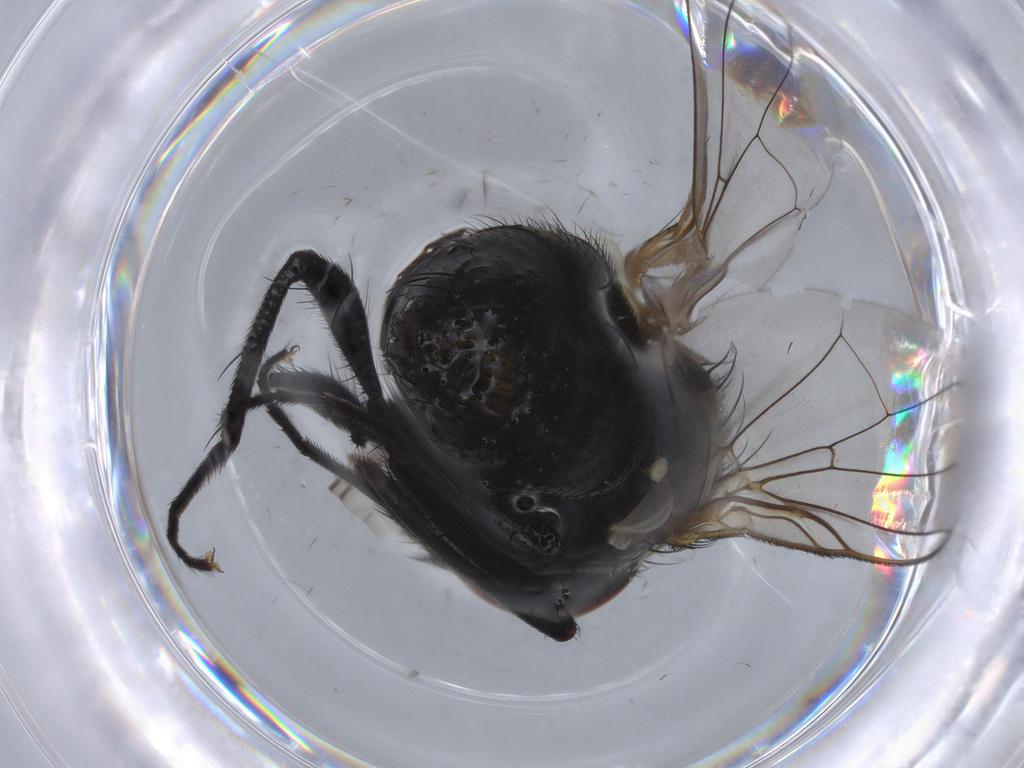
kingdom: Animalia
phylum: Arthropoda
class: Insecta
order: Diptera
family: Muscidae
